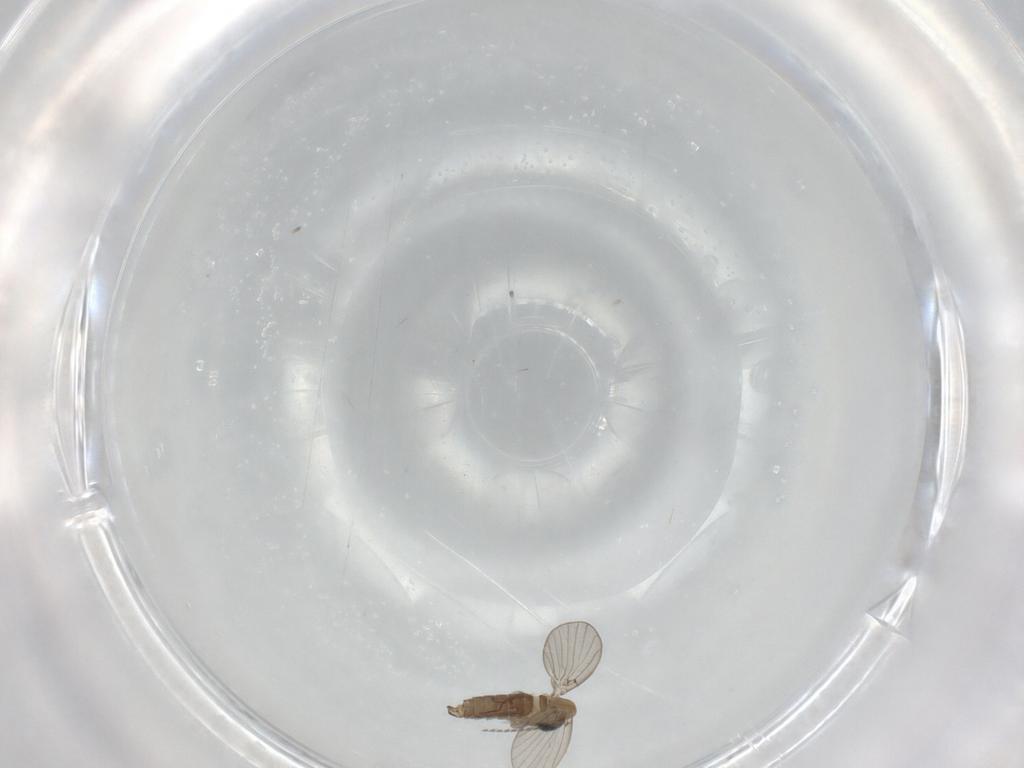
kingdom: Animalia
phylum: Arthropoda
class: Insecta
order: Diptera
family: Psychodidae
